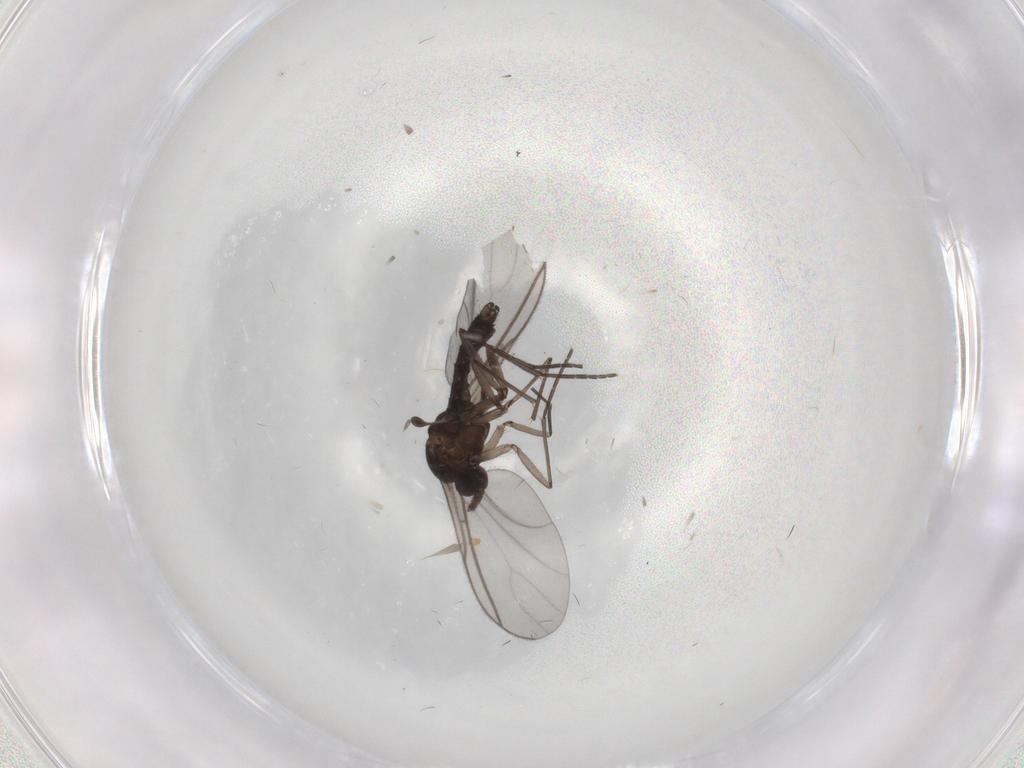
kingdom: Animalia
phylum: Arthropoda
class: Insecta
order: Diptera
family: Sciaridae
